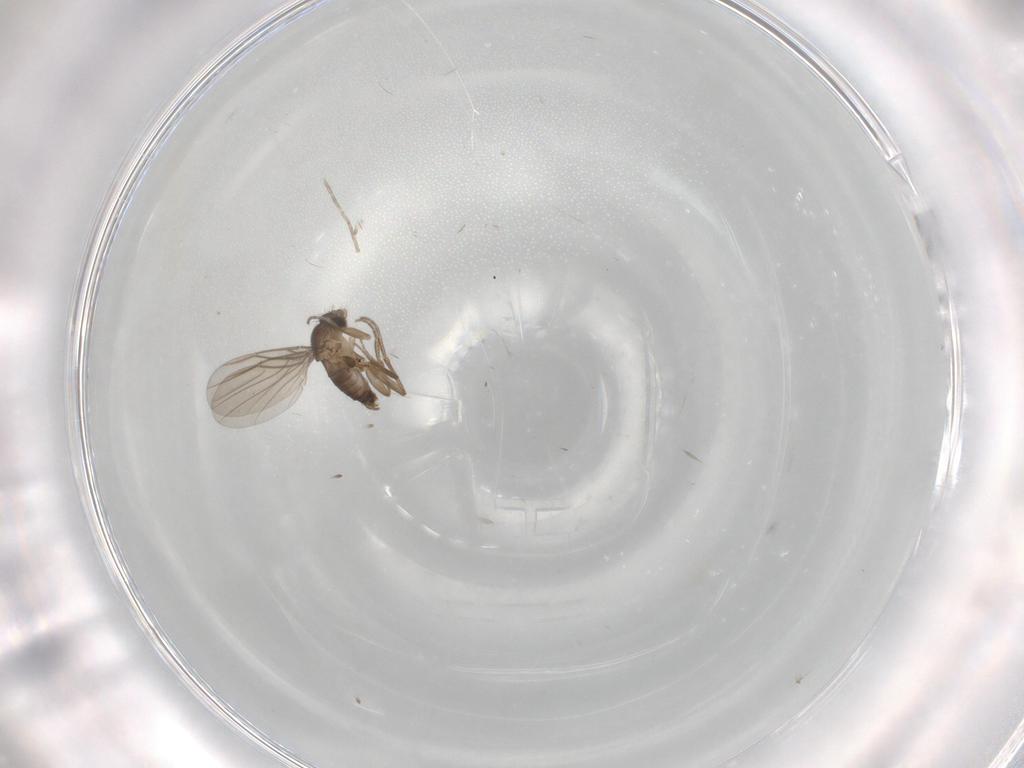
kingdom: Animalia
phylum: Arthropoda
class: Insecta
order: Diptera
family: Phoridae
